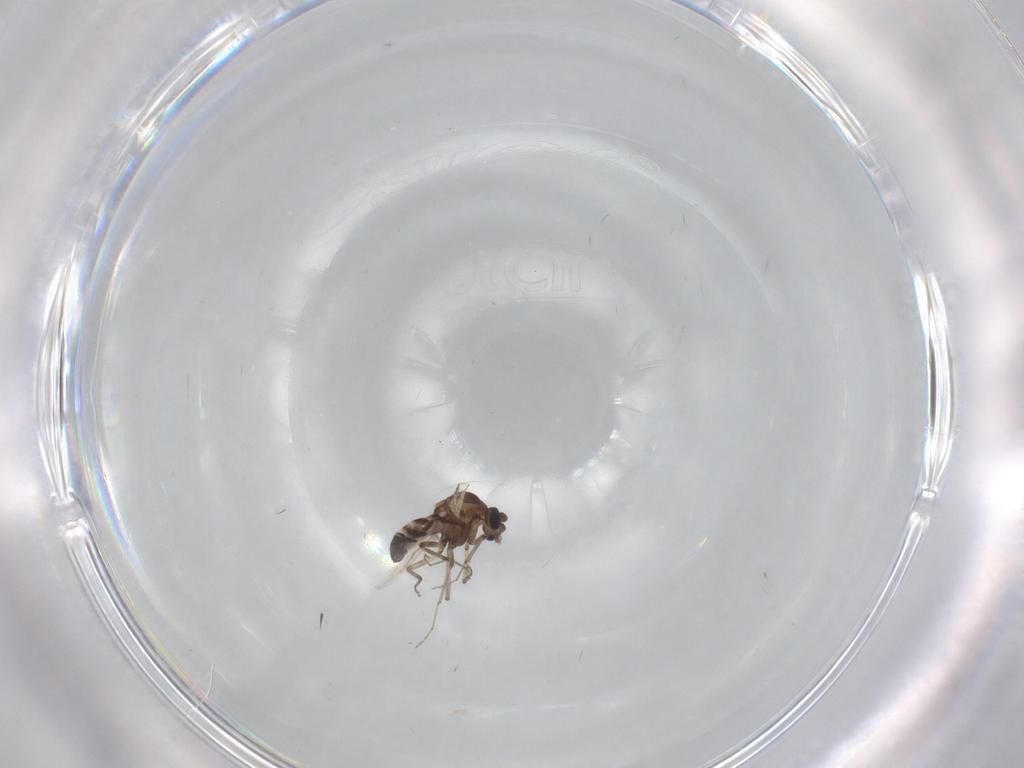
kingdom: Animalia
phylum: Arthropoda
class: Insecta
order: Diptera
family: Ceratopogonidae
